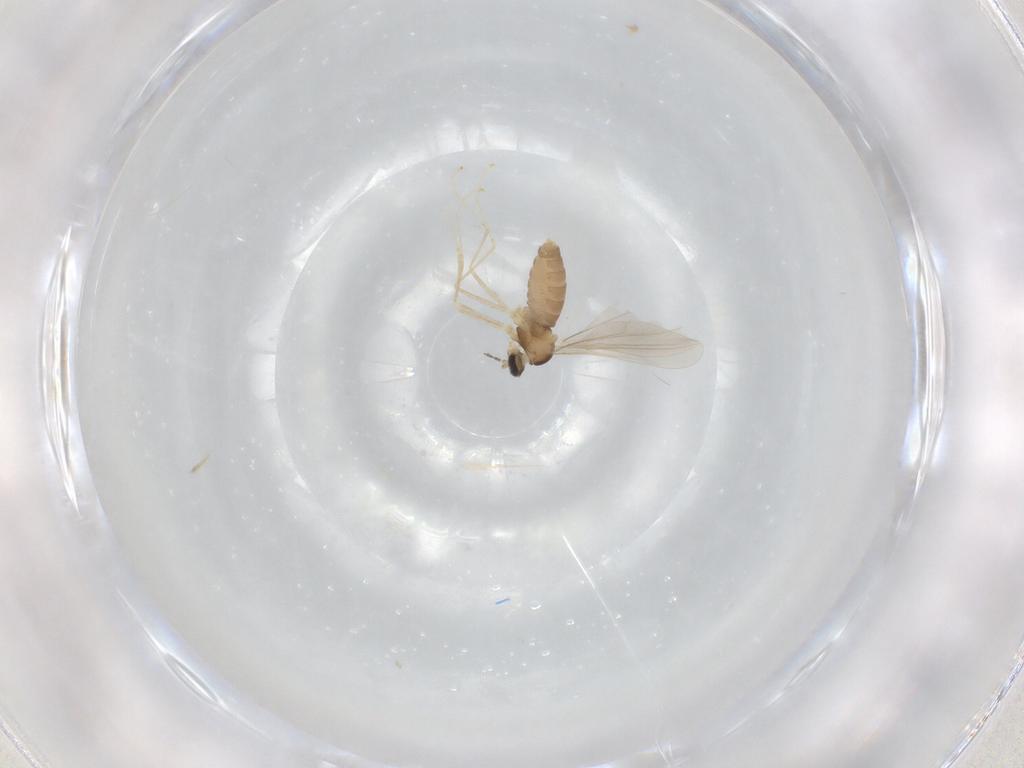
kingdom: Animalia
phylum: Arthropoda
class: Insecta
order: Diptera
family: Cecidomyiidae
